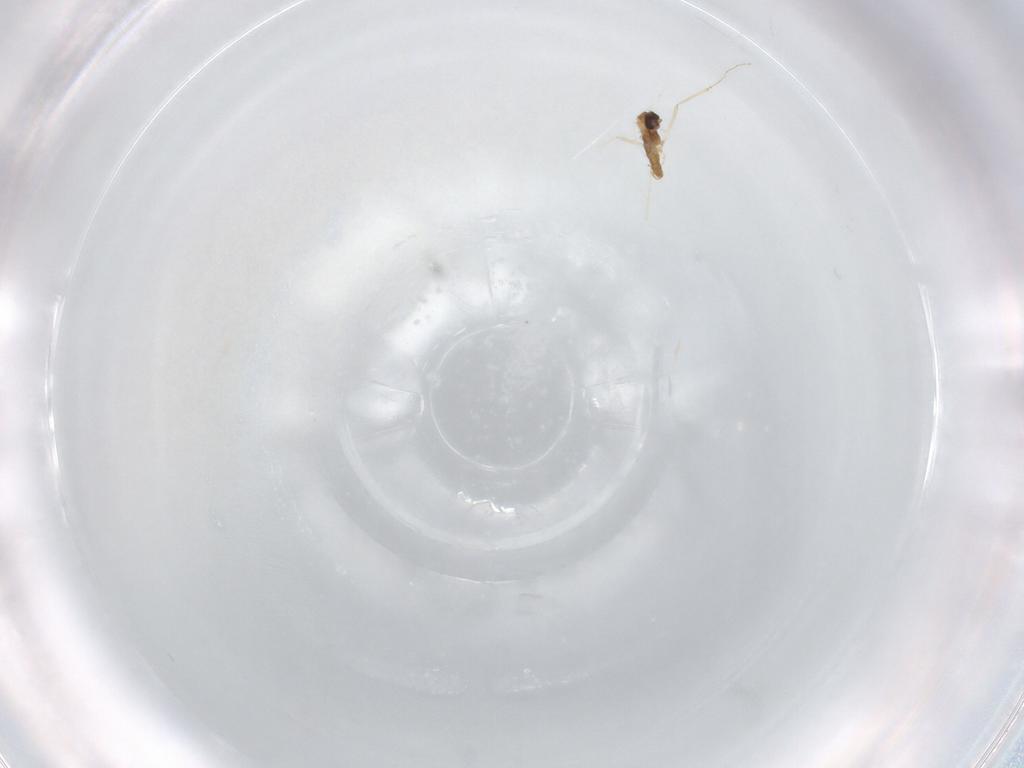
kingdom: Animalia
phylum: Arthropoda
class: Insecta
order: Diptera
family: Cecidomyiidae
